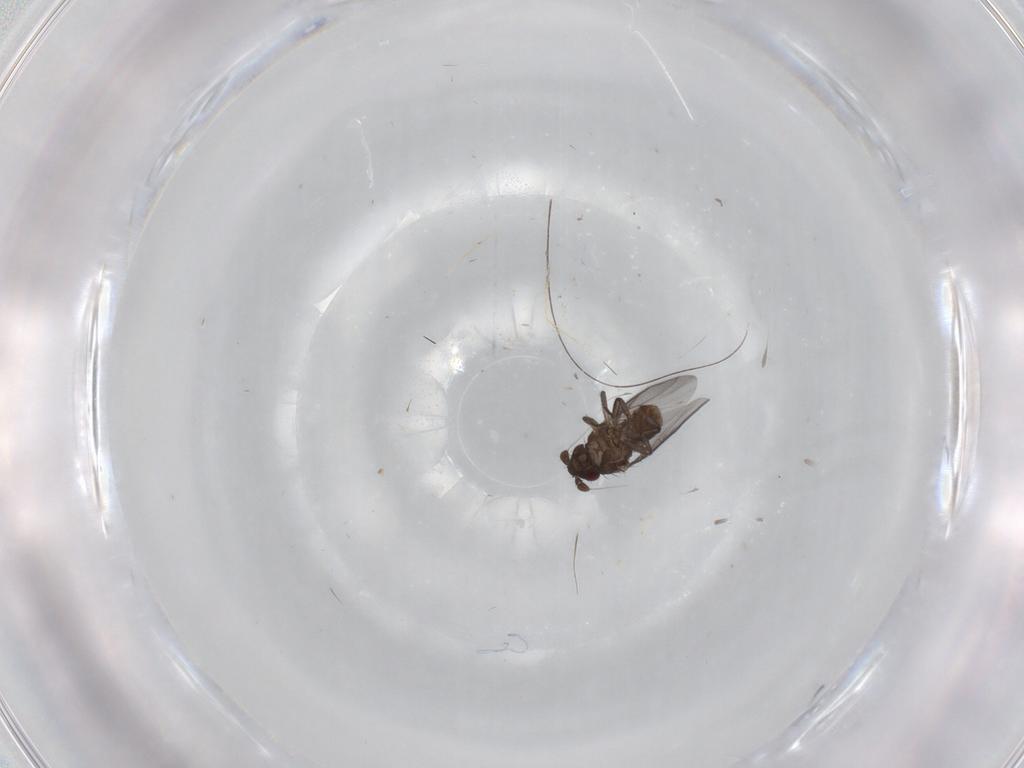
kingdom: Animalia
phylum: Arthropoda
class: Insecta
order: Diptera
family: Sphaeroceridae
